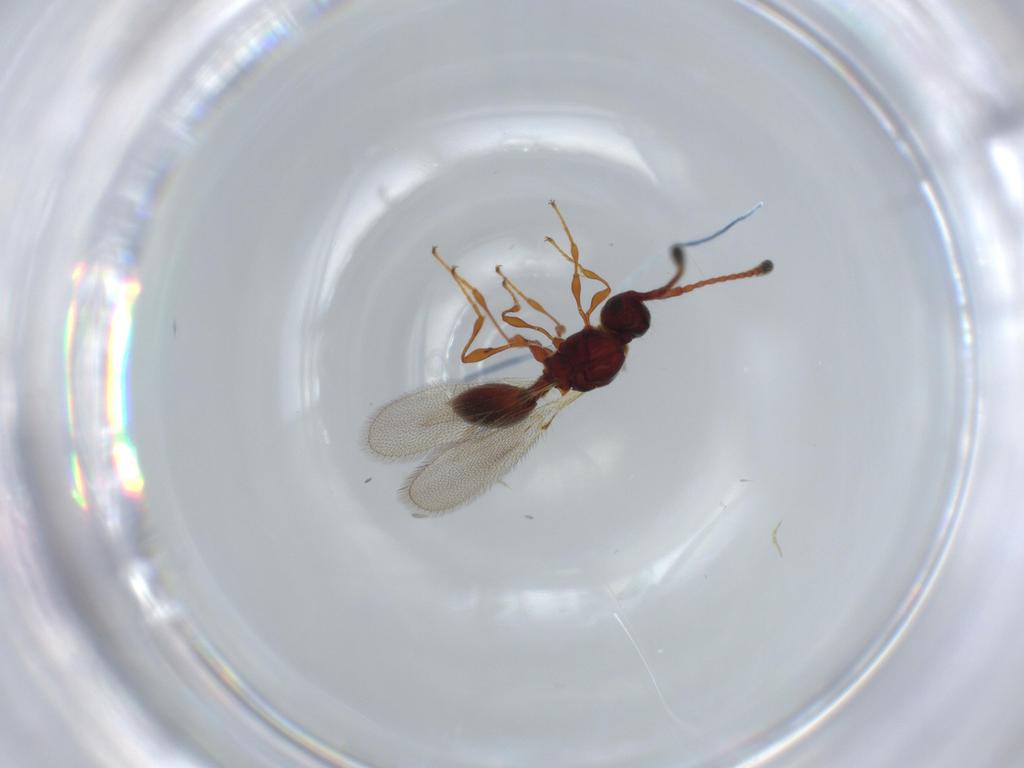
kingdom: Animalia
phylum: Arthropoda
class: Insecta
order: Hymenoptera
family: Diapriidae
